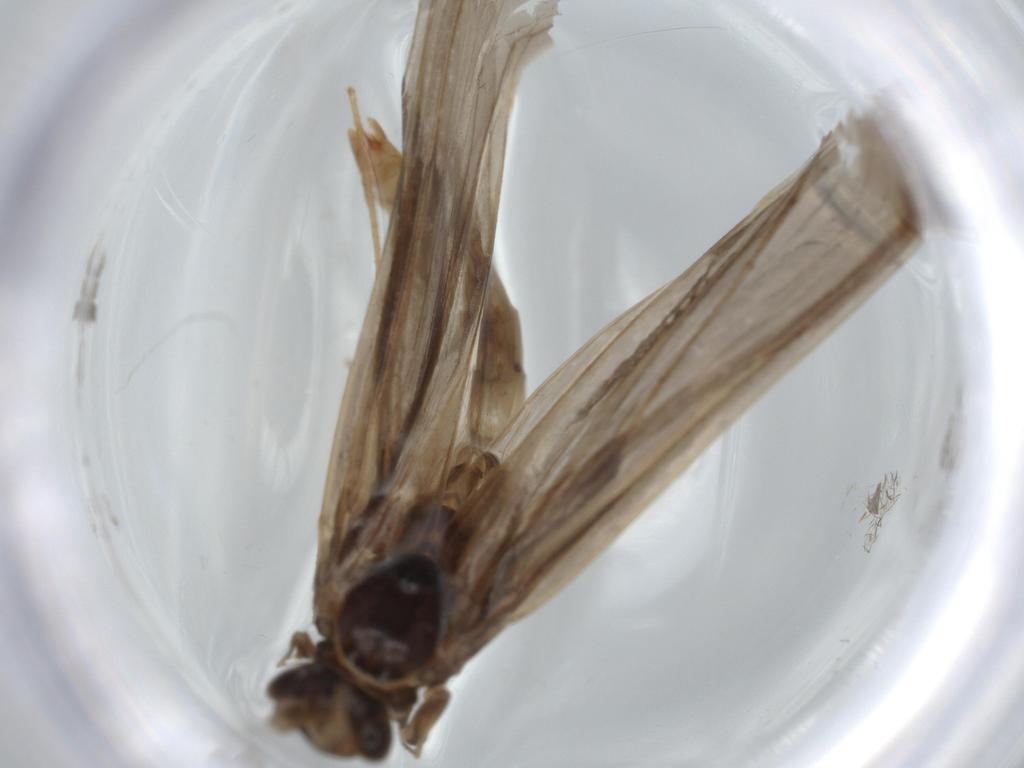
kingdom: Animalia
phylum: Arthropoda
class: Insecta
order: Trichoptera
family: Leptoceridae
